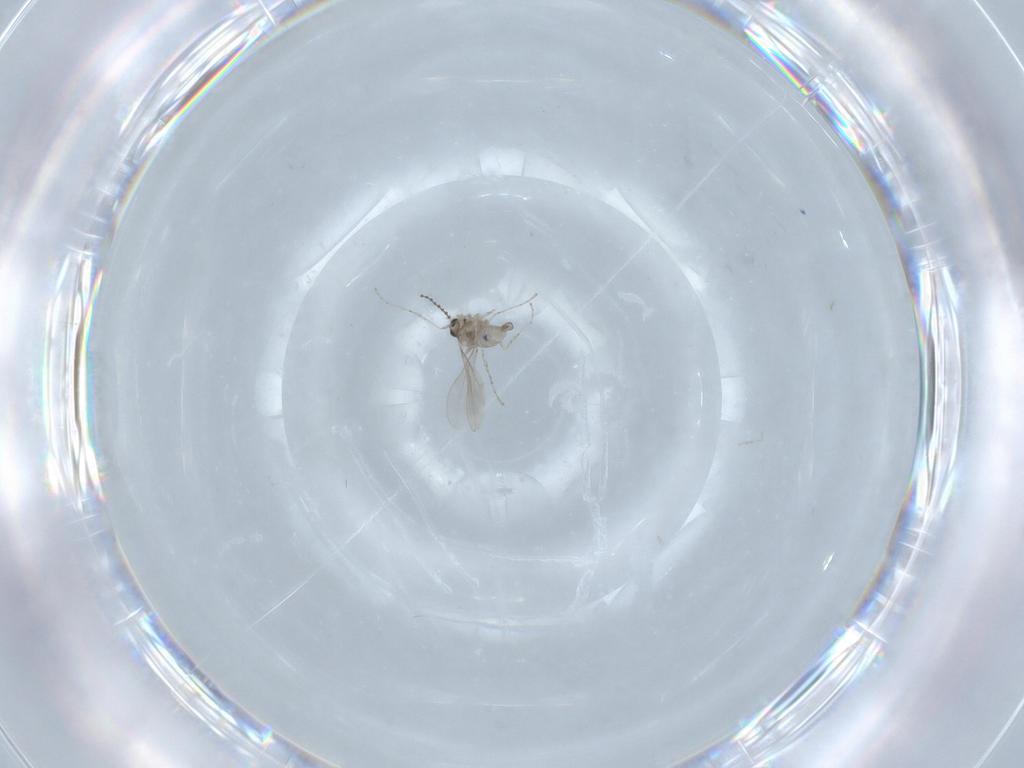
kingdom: Animalia
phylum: Arthropoda
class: Insecta
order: Diptera
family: Cecidomyiidae
